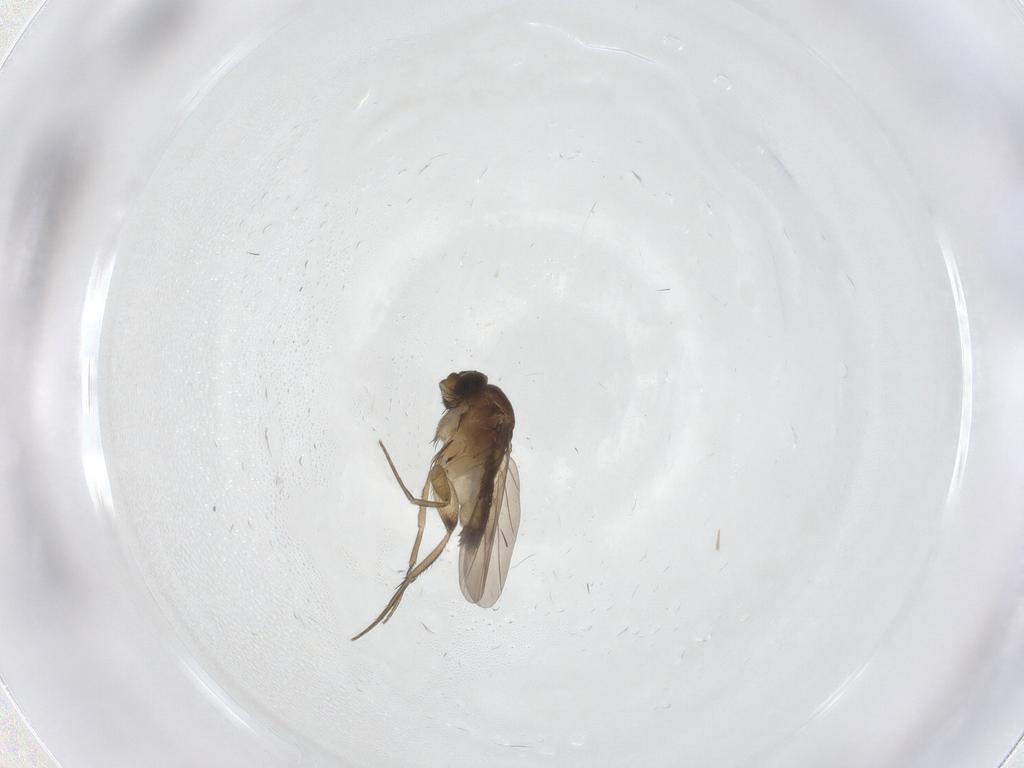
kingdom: Animalia
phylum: Arthropoda
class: Insecta
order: Diptera
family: Phoridae
